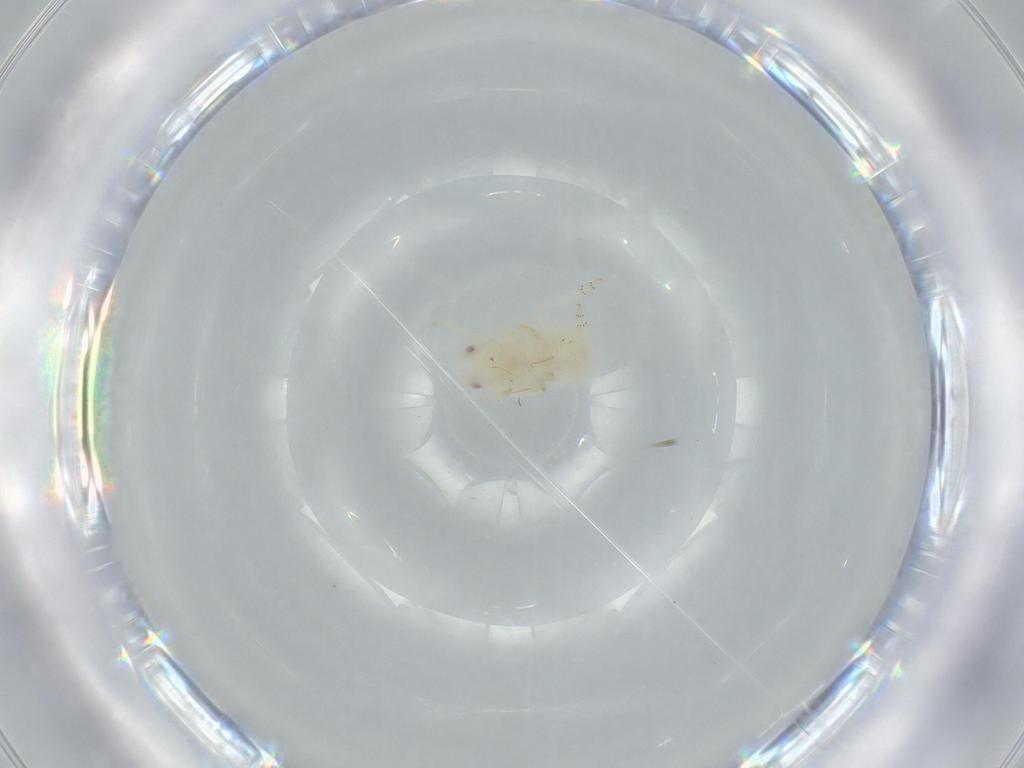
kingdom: Animalia
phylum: Arthropoda
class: Insecta
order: Hemiptera
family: Flatidae
